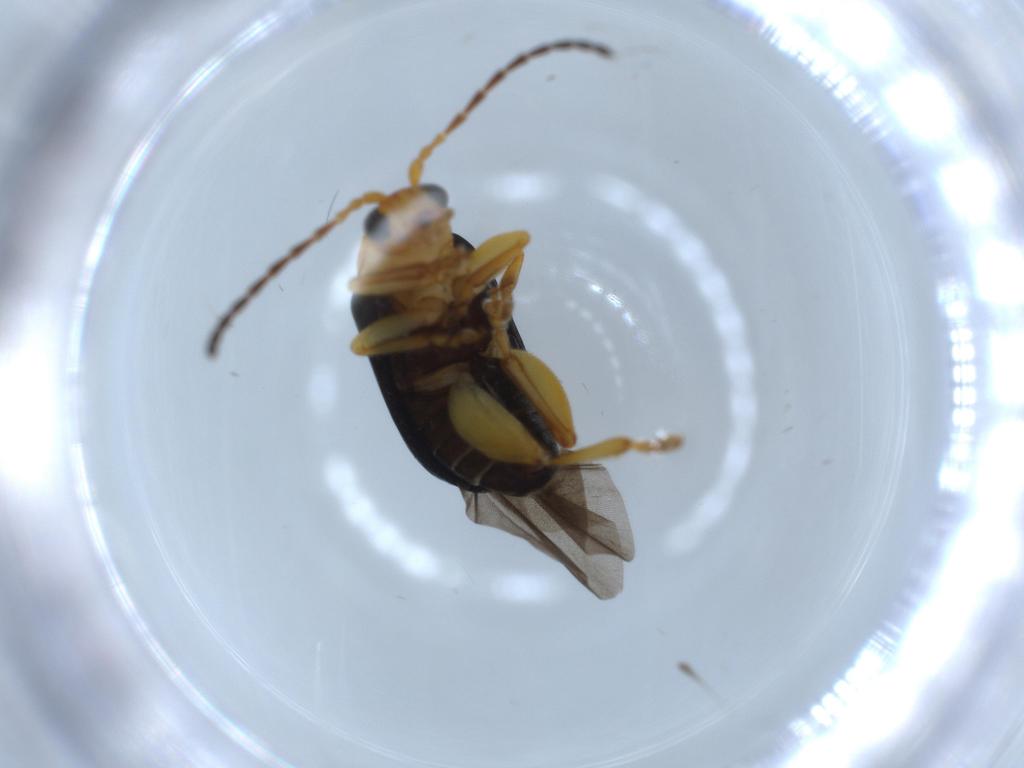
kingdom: Animalia
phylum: Arthropoda
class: Insecta
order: Coleoptera
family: Chrysomelidae
